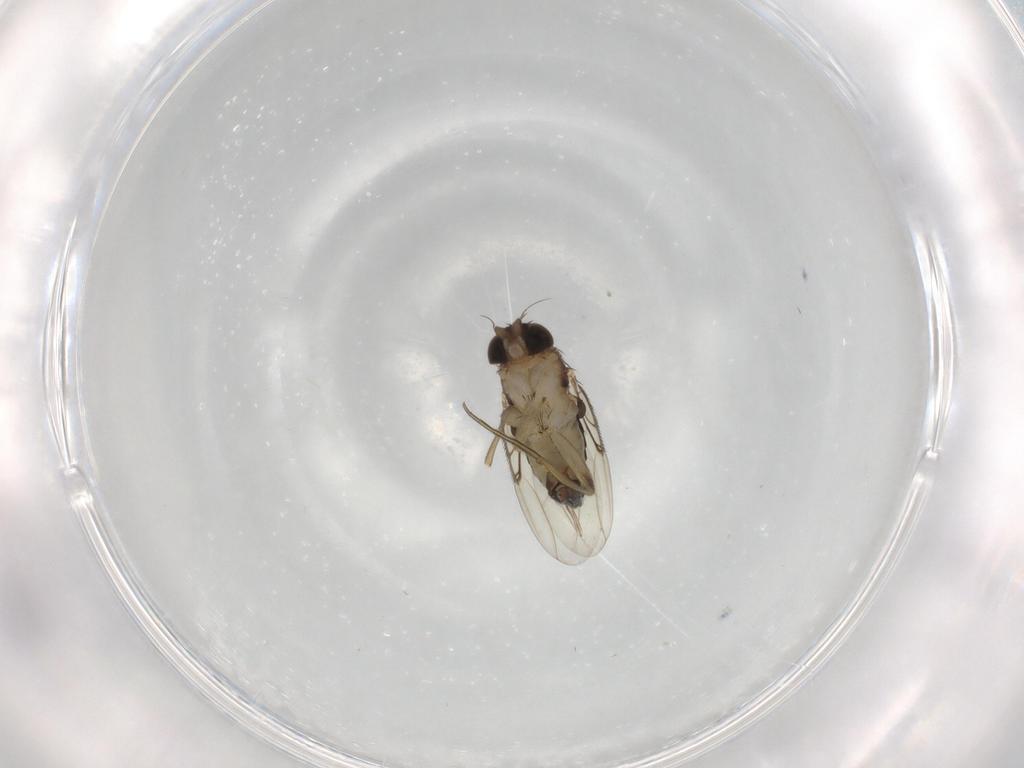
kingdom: Animalia
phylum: Arthropoda
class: Insecta
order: Diptera
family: Phoridae
